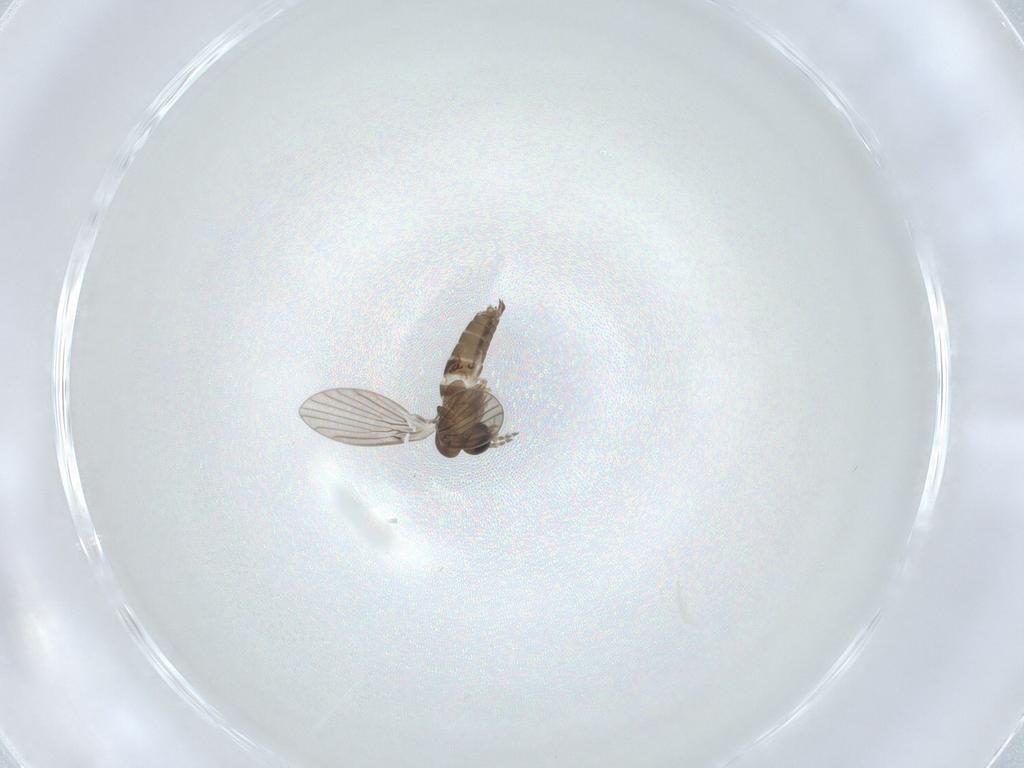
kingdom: Animalia
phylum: Arthropoda
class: Insecta
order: Diptera
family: Phoridae
